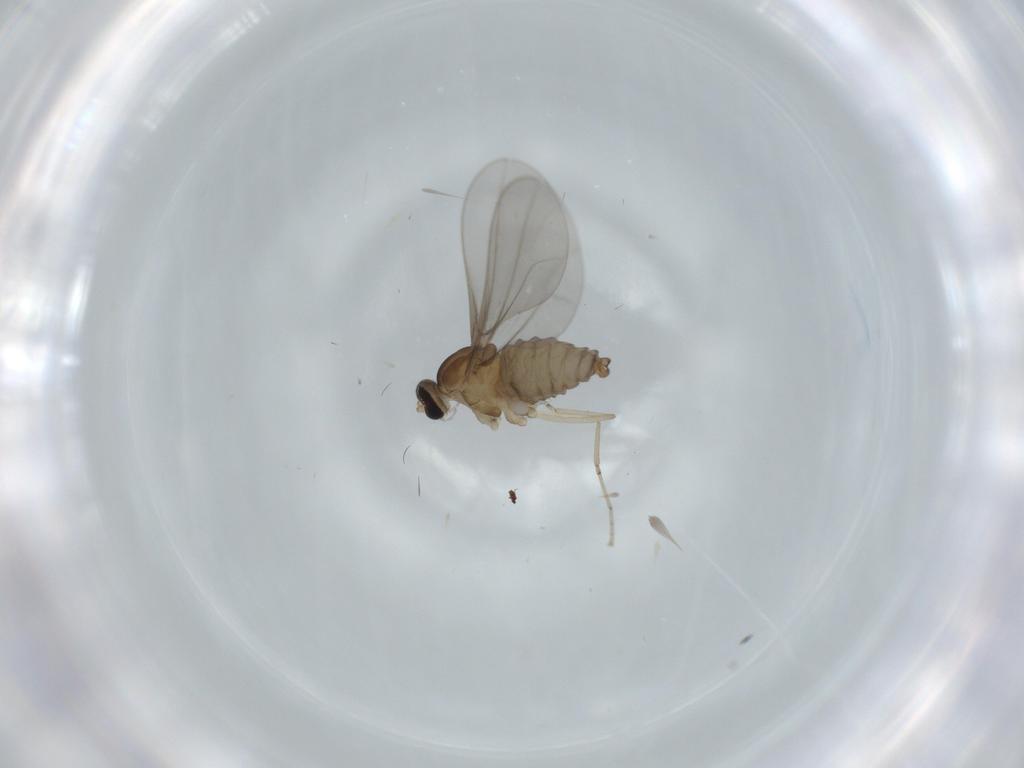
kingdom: Animalia
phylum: Arthropoda
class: Insecta
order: Diptera
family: Cecidomyiidae
